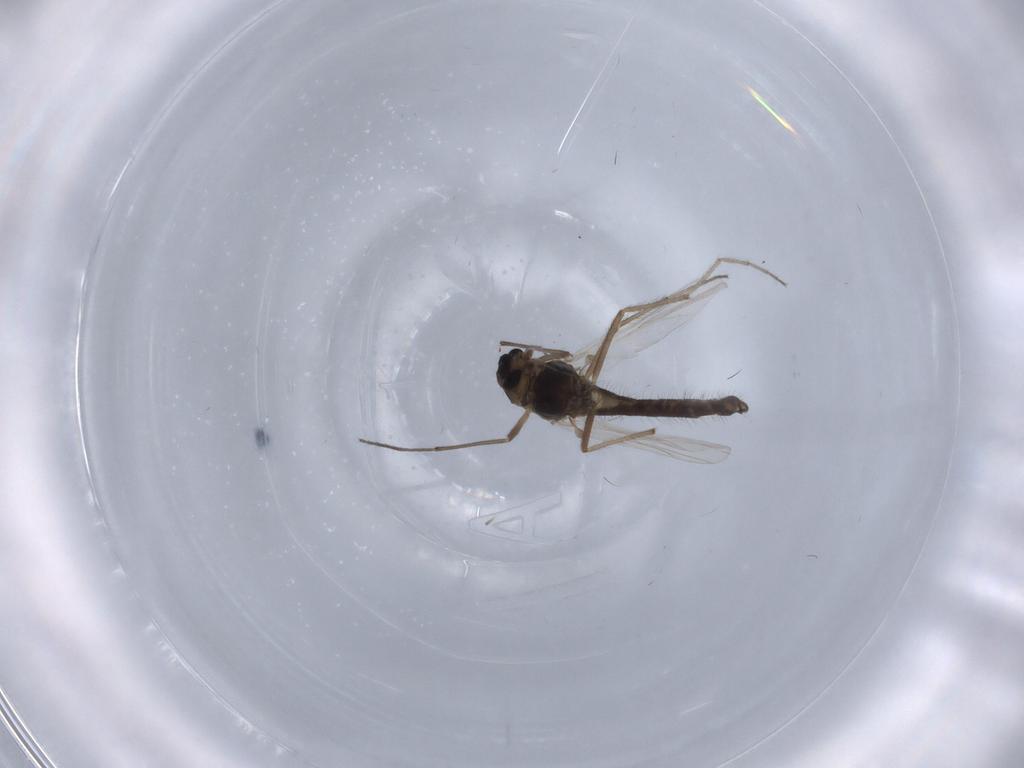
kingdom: Animalia
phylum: Arthropoda
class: Insecta
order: Diptera
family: Chironomidae
